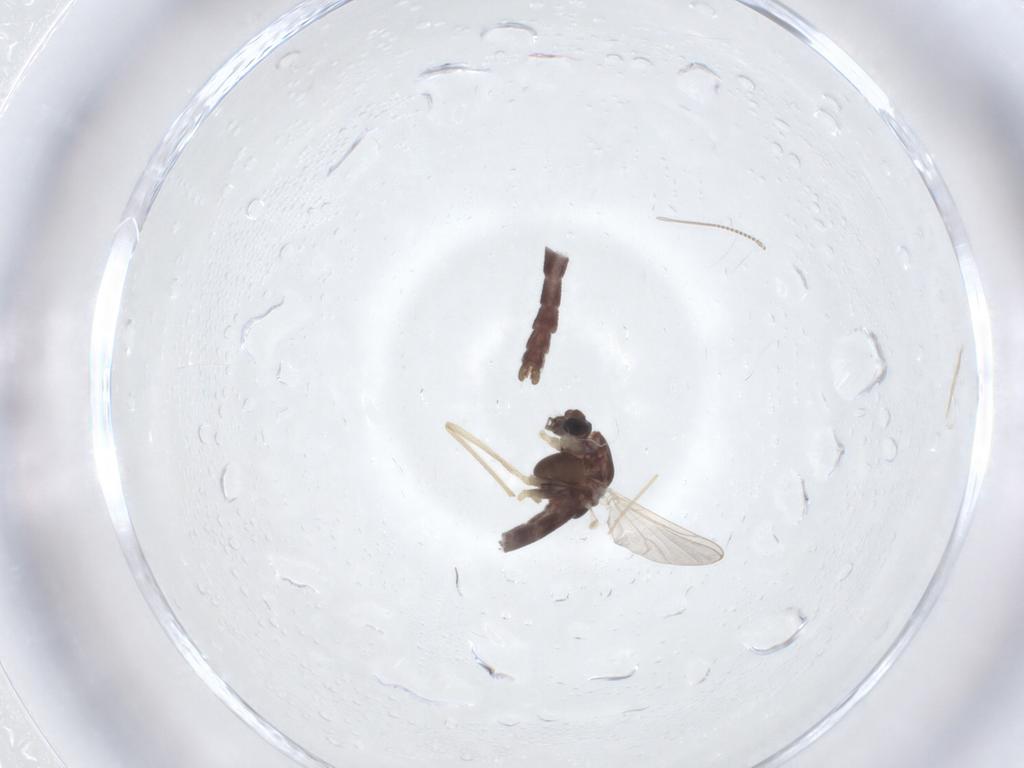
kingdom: Animalia
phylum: Arthropoda
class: Insecta
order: Diptera
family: Chironomidae
